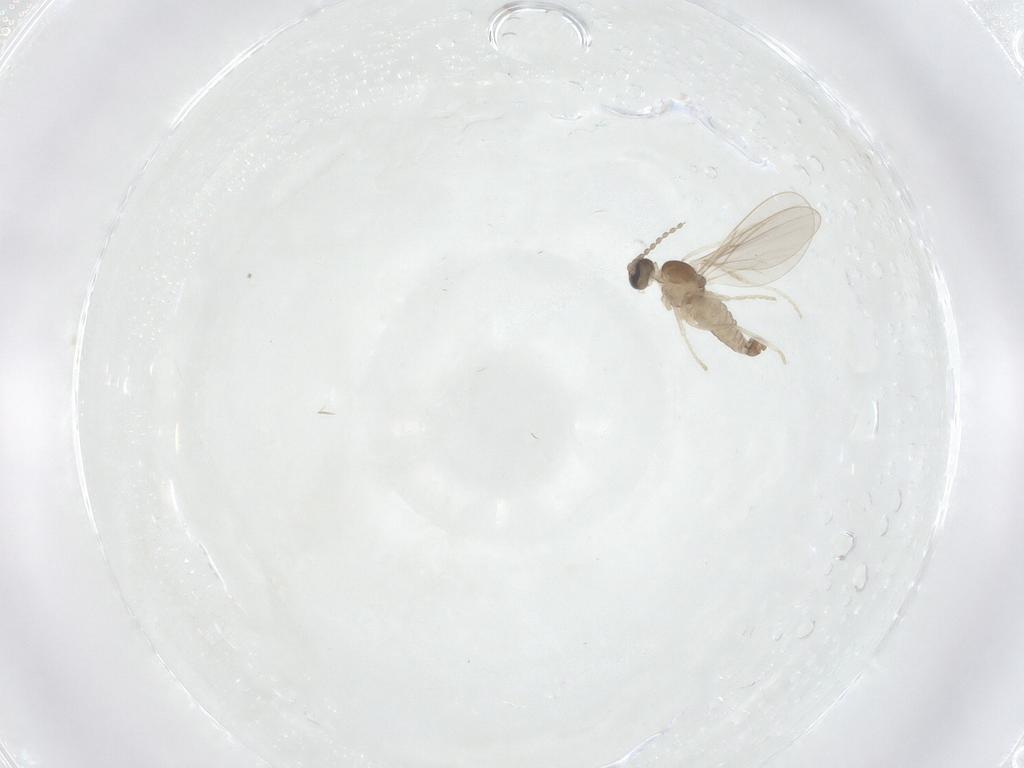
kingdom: Animalia
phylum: Arthropoda
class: Insecta
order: Diptera
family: Cecidomyiidae
